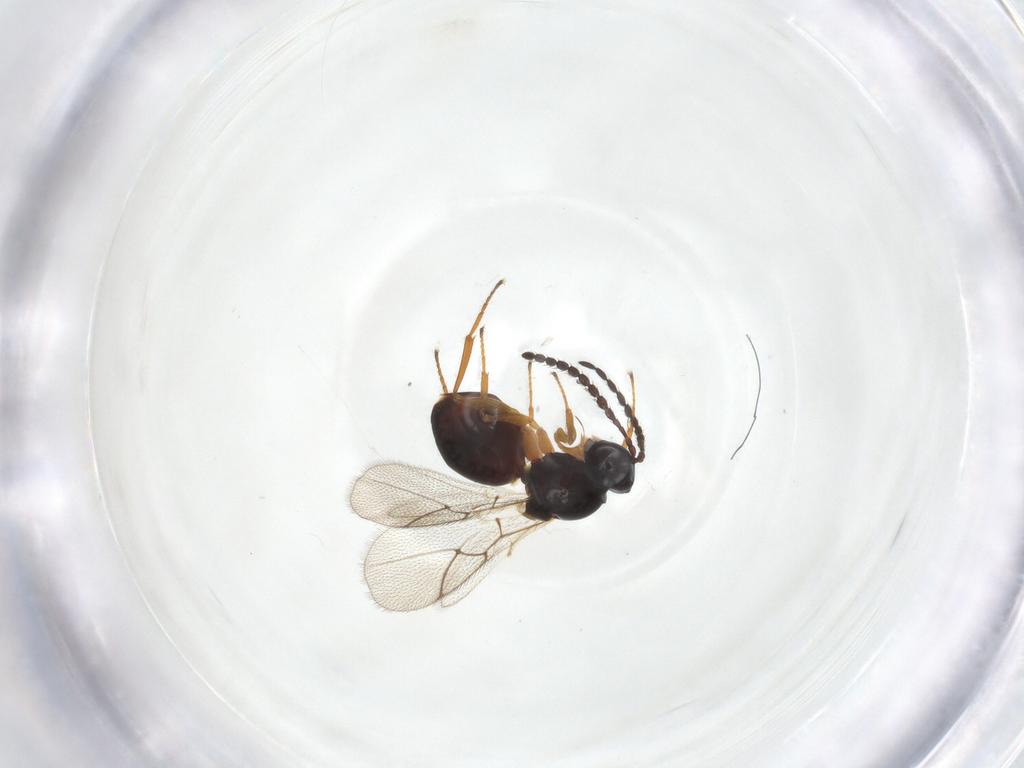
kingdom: Animalia
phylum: Arthropoda
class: Insecta
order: Hymenoptera
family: Figitidae
